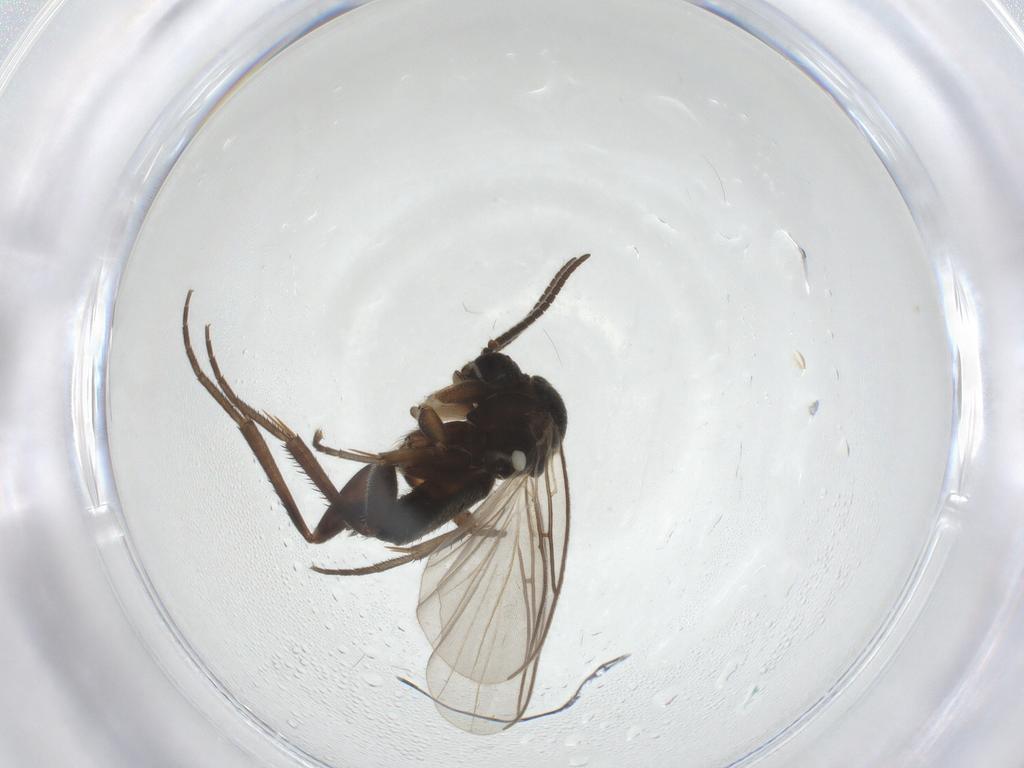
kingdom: Animalia
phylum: Arthropoda
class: Insecta
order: Diptera
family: Mycetophilidae
